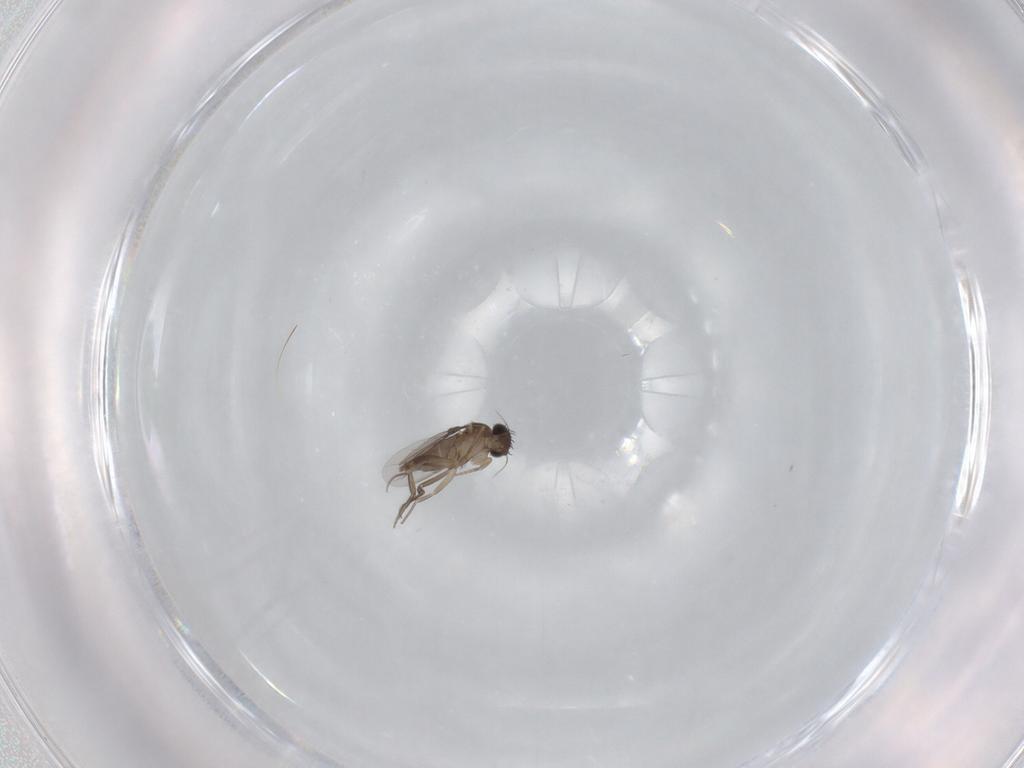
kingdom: Animalia
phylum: Arthropoda
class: Insecta
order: Diptera
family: Phoridae
